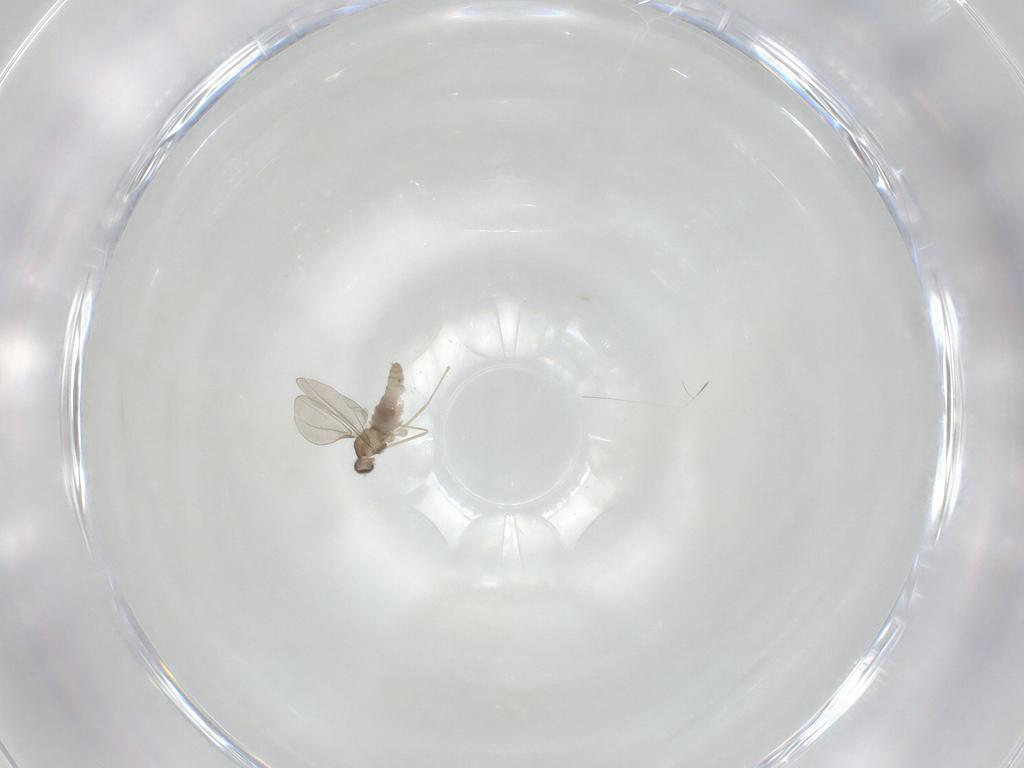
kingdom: Animalia
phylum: Arthropoda
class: Insecta
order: Diptera
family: Cecidomyiidae
